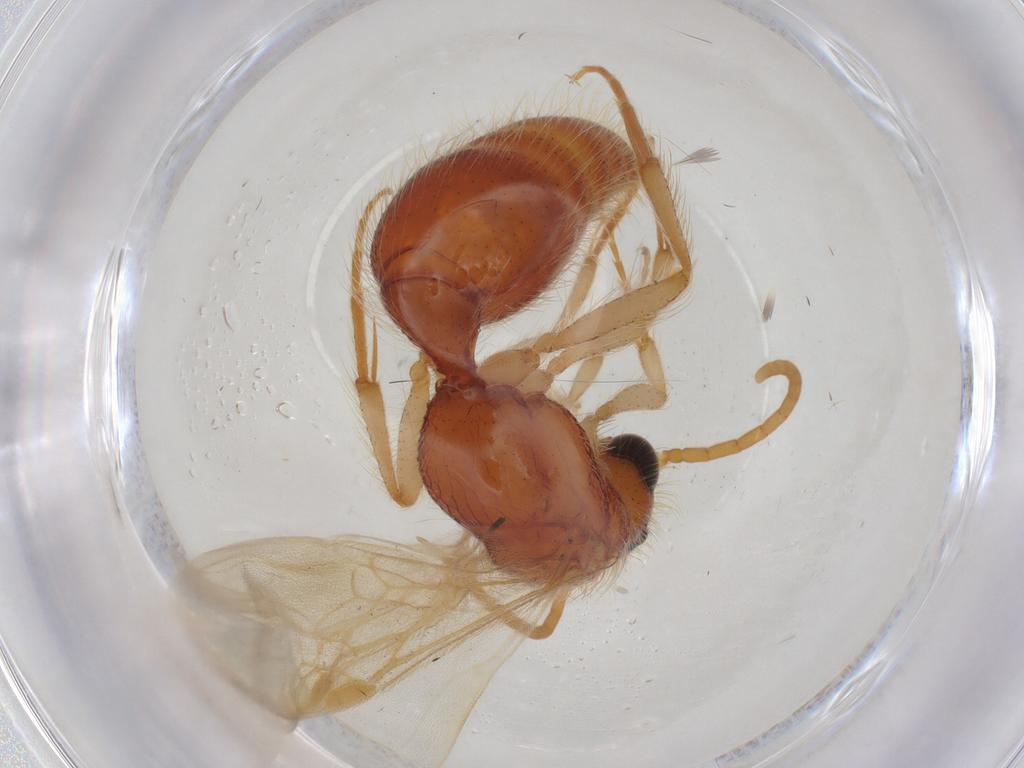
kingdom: Animalia
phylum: Arthropoda
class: Insecta
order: Hymenoptera
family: Mutillidae
